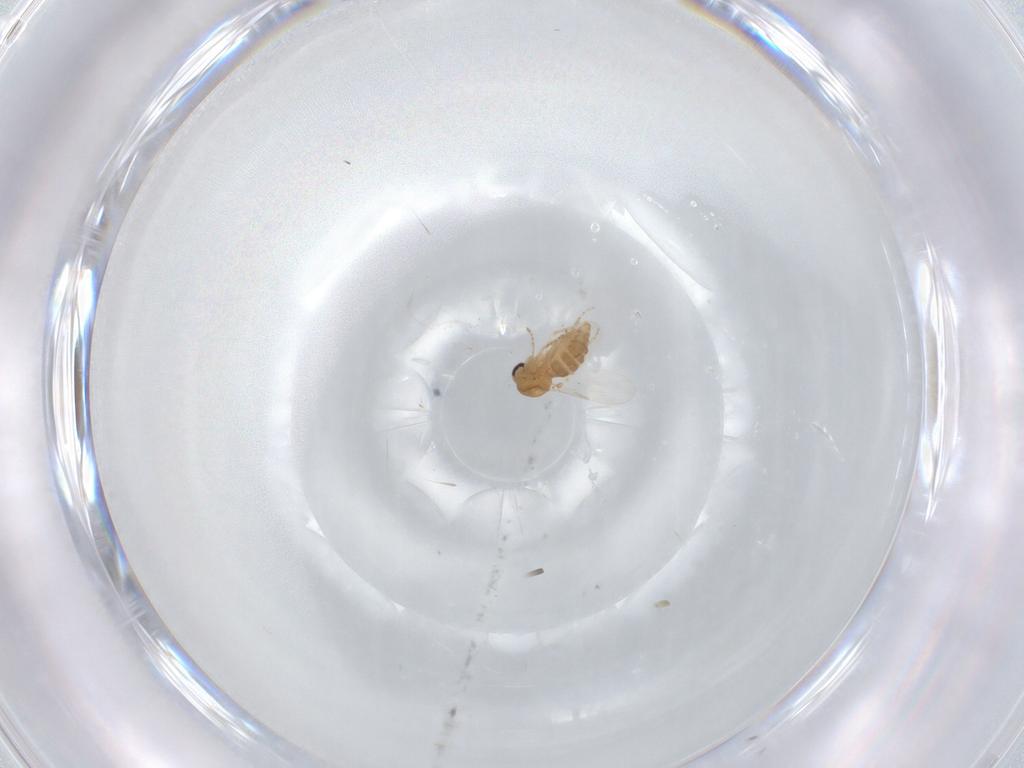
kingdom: Animalia
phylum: Arthropoda
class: Insecta
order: Diptera
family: Ceratopogonidae
